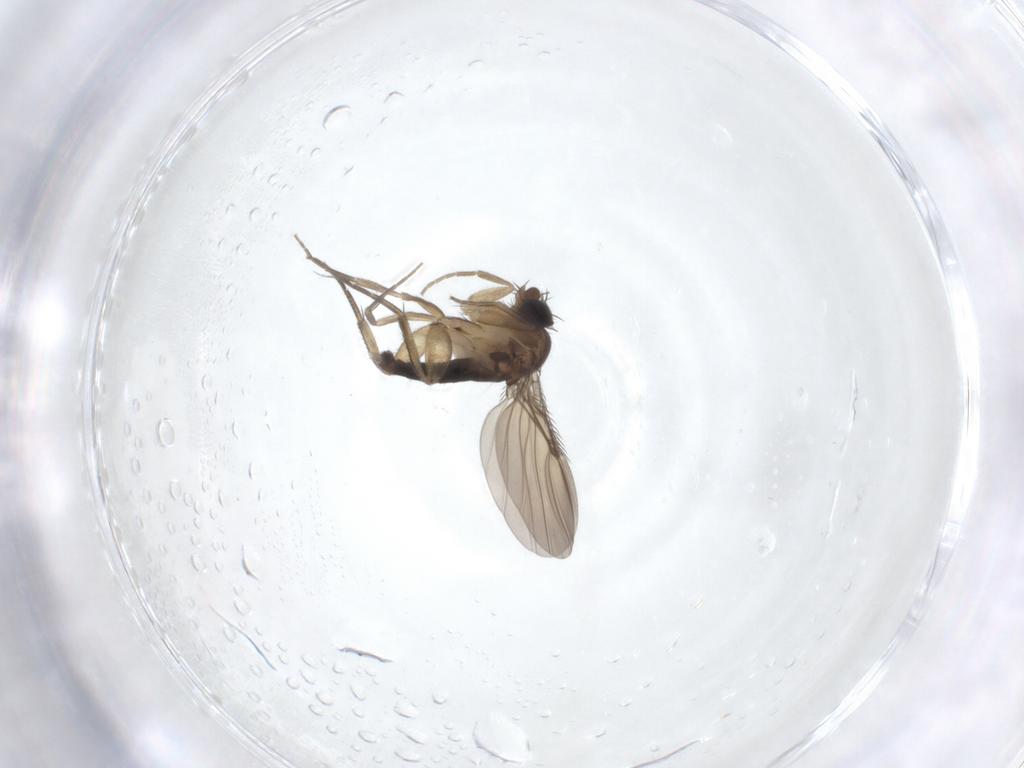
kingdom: Animalia
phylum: Arthropoda
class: Insecta
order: Diptera
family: Phoridae
